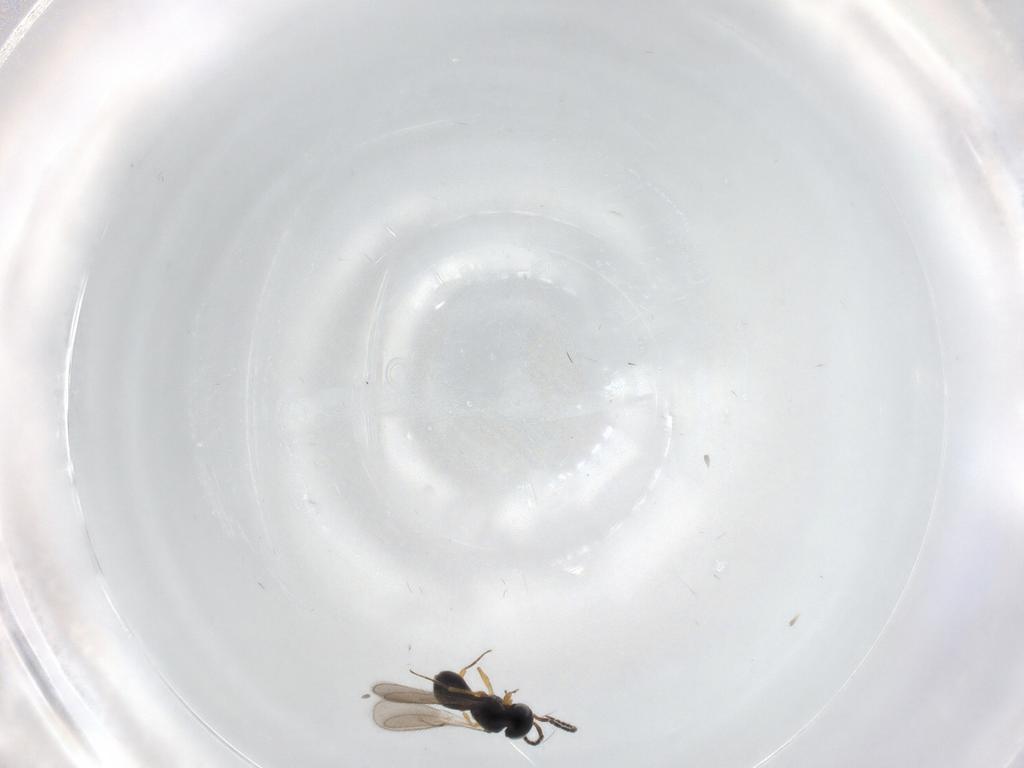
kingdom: Animalia
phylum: Arthropoda
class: Insecta
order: Hymenoptera
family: Scelionidae
